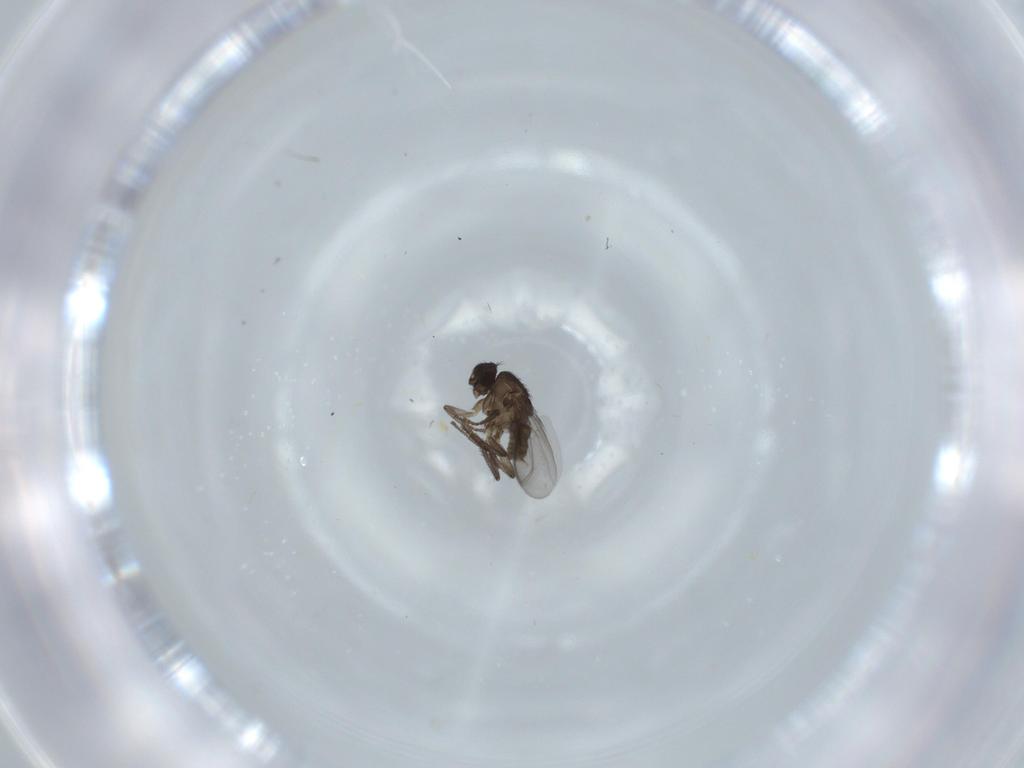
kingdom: Animalia
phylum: Arthropoda
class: Insecta
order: Diptera
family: Sphaeroceridae
